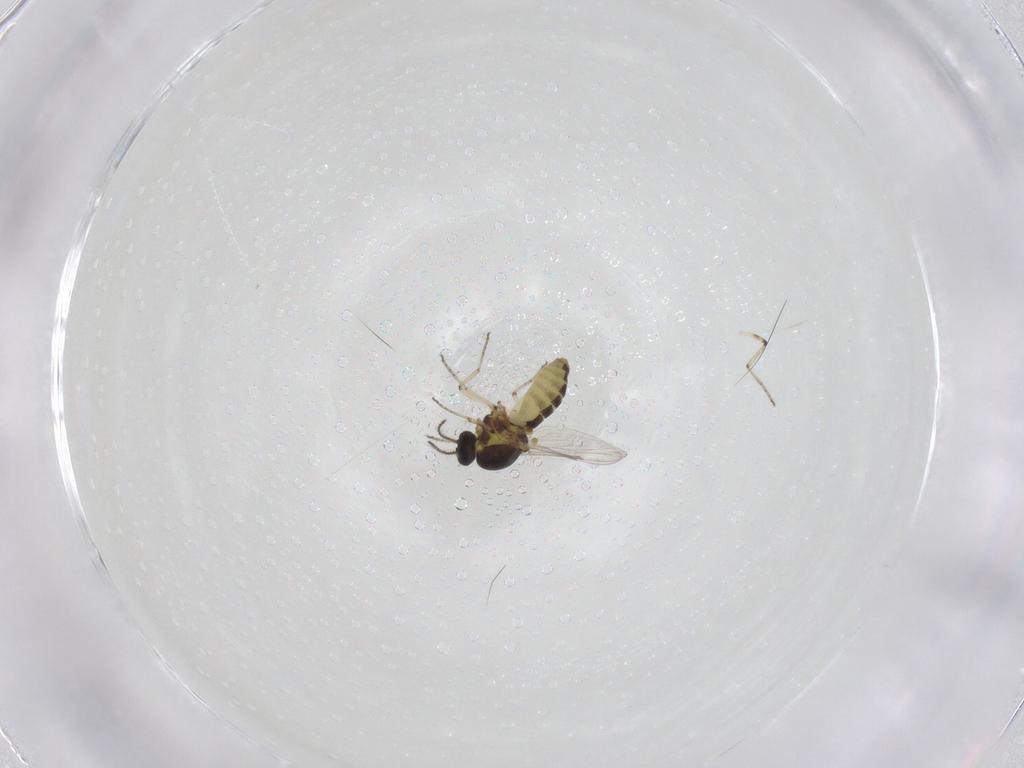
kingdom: Animalia
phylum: Arthropoda
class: Insecta
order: Diptera
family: Ceratopogonidae
